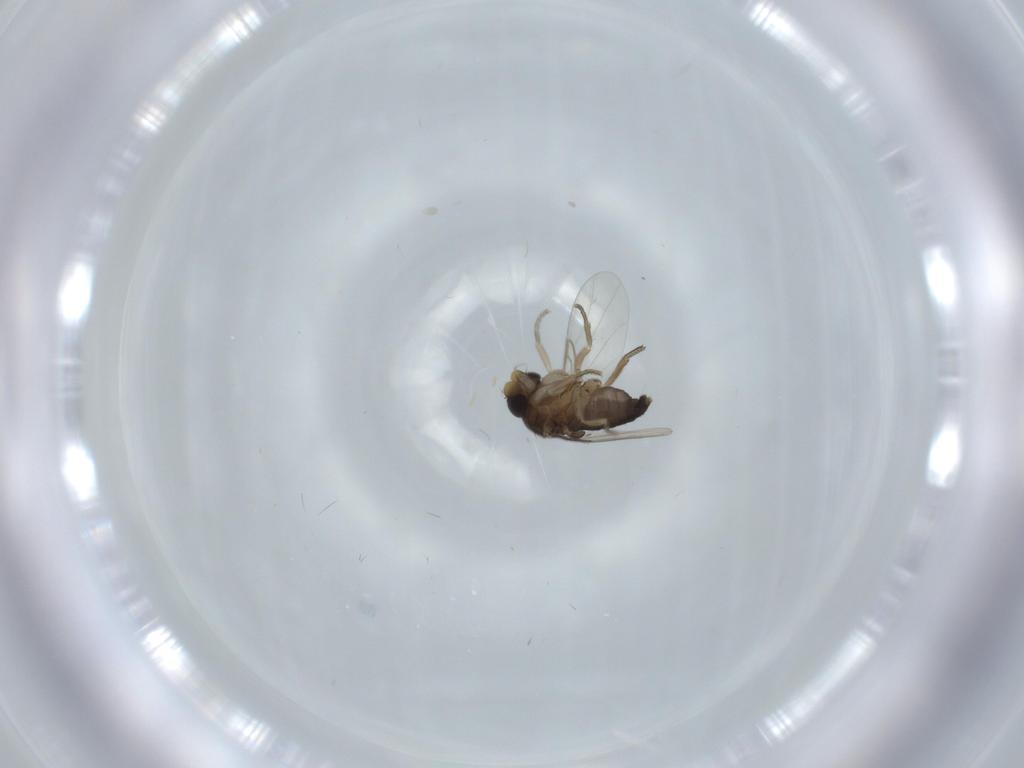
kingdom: Animalia
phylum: Arthropoda
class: Insecta
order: Diptera
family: Phoridae
